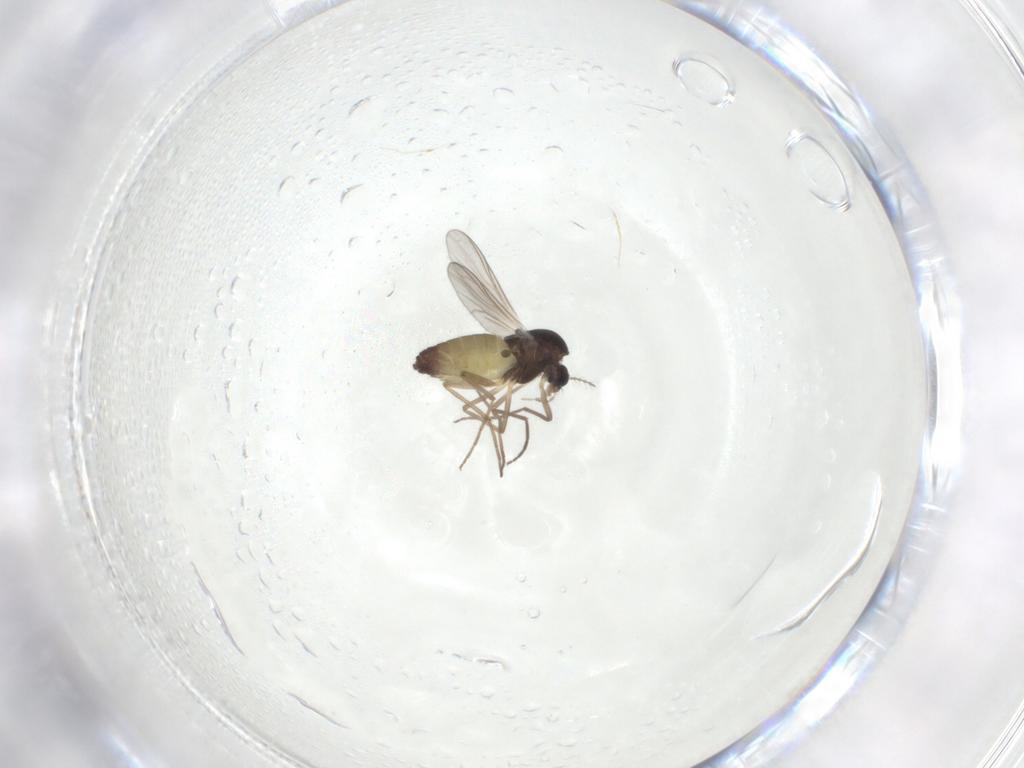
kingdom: Animalia
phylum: Arthropoda
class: Insecta
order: Diptera
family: Chironomidae
